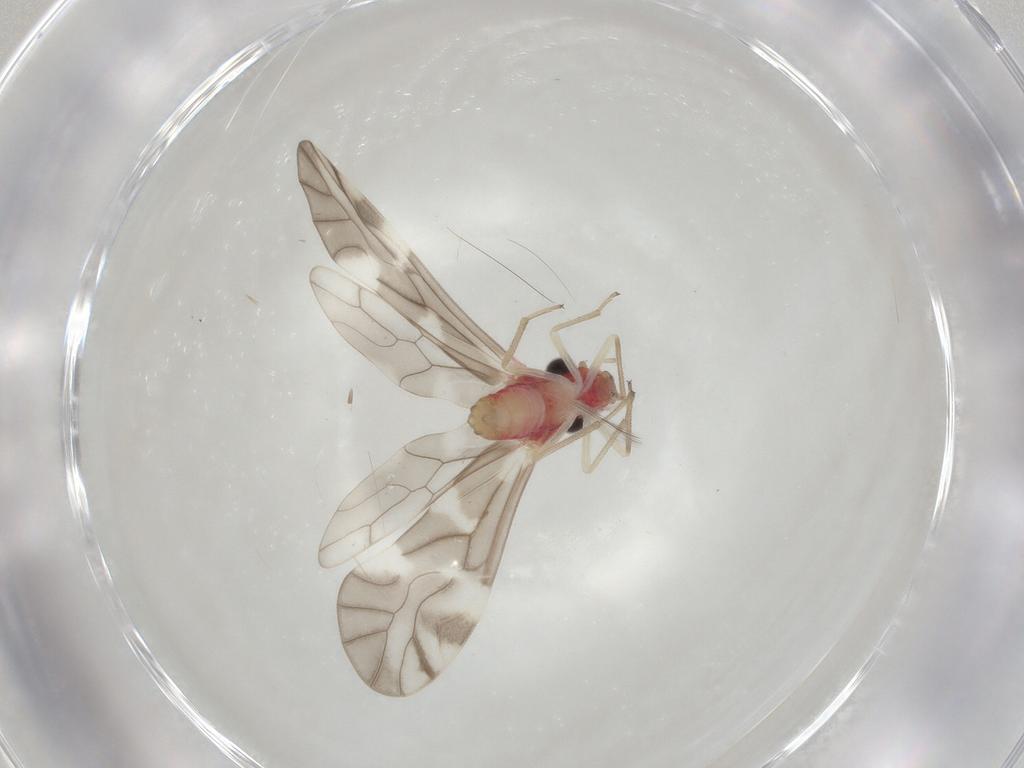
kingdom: Animalia
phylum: Arthropoda
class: Insecta
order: Psocodea
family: Caeciliusidae
